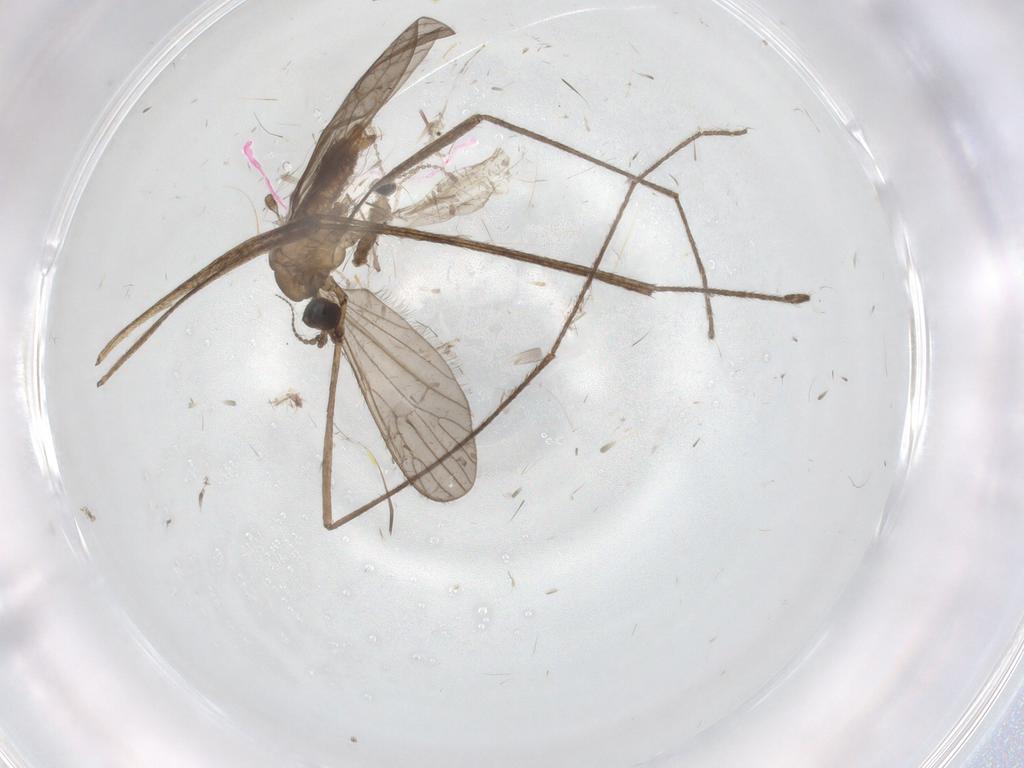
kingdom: Animalia
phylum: Arthropoda
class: Insecta
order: Diptera
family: Limoniidae
